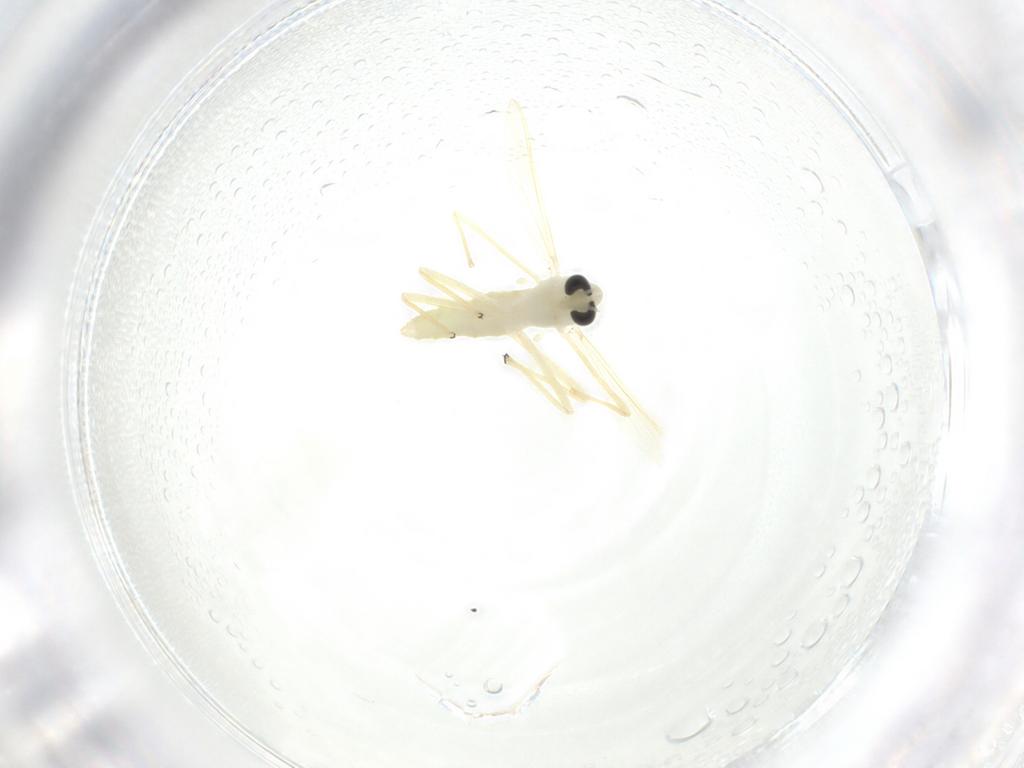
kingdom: Animalia
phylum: Arthropoda
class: Insecta
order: Diptera
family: Chironomidae
